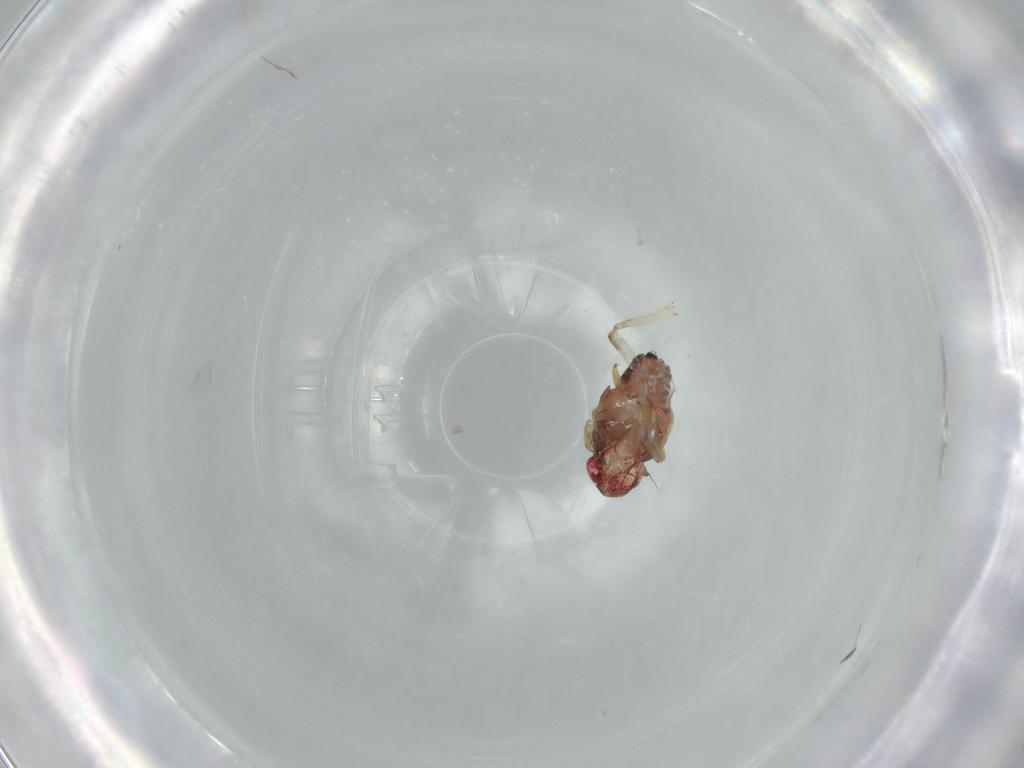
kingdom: Animalia
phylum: Arthropoda
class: Insecta
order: Hemiptera
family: Issidae
